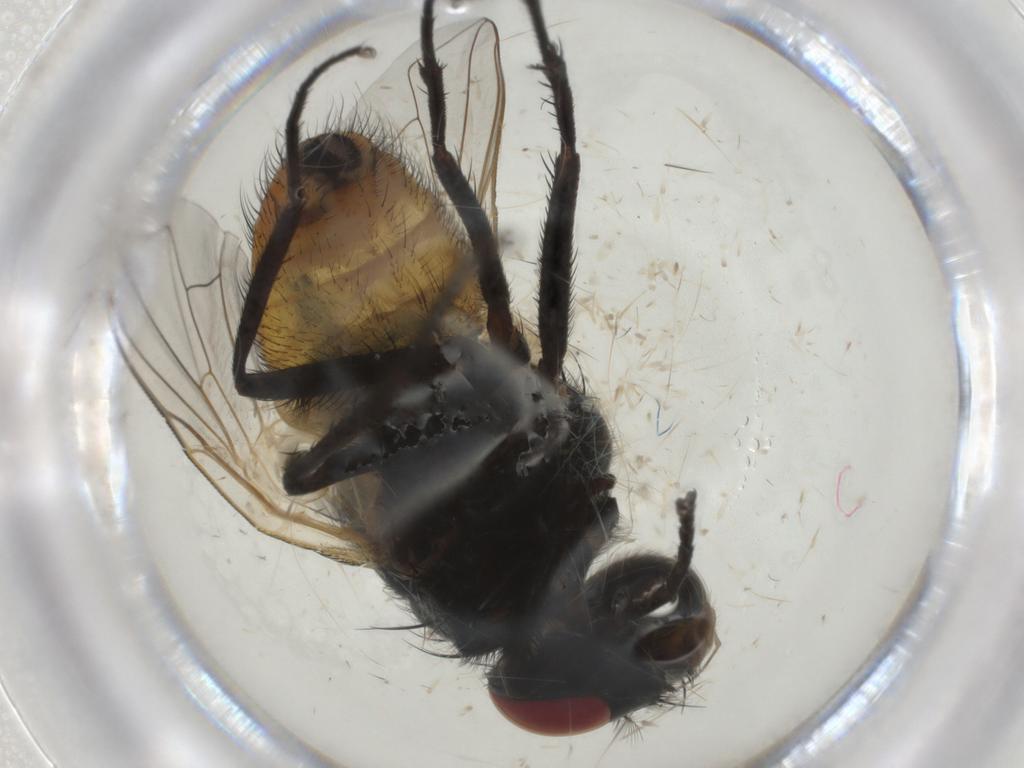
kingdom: Animalia
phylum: Arthropoda
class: Insecta
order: Diptera
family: Muscidae
